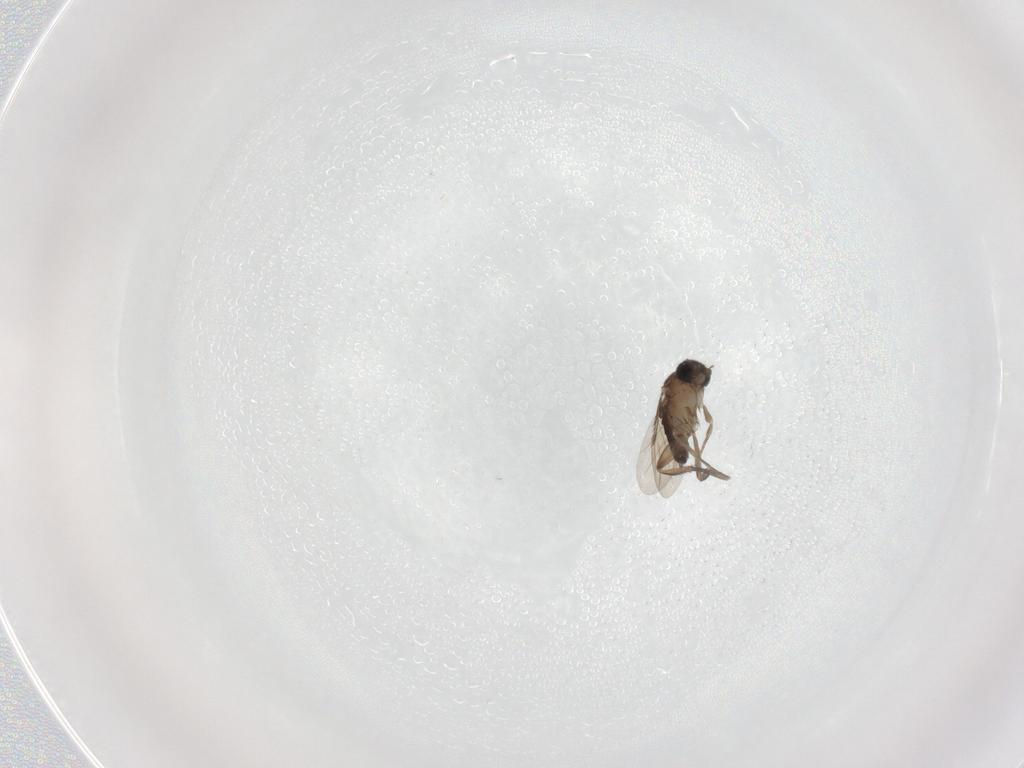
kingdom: Animalia
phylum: Arthropoda
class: Insecta
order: Diptera
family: Phoridae
